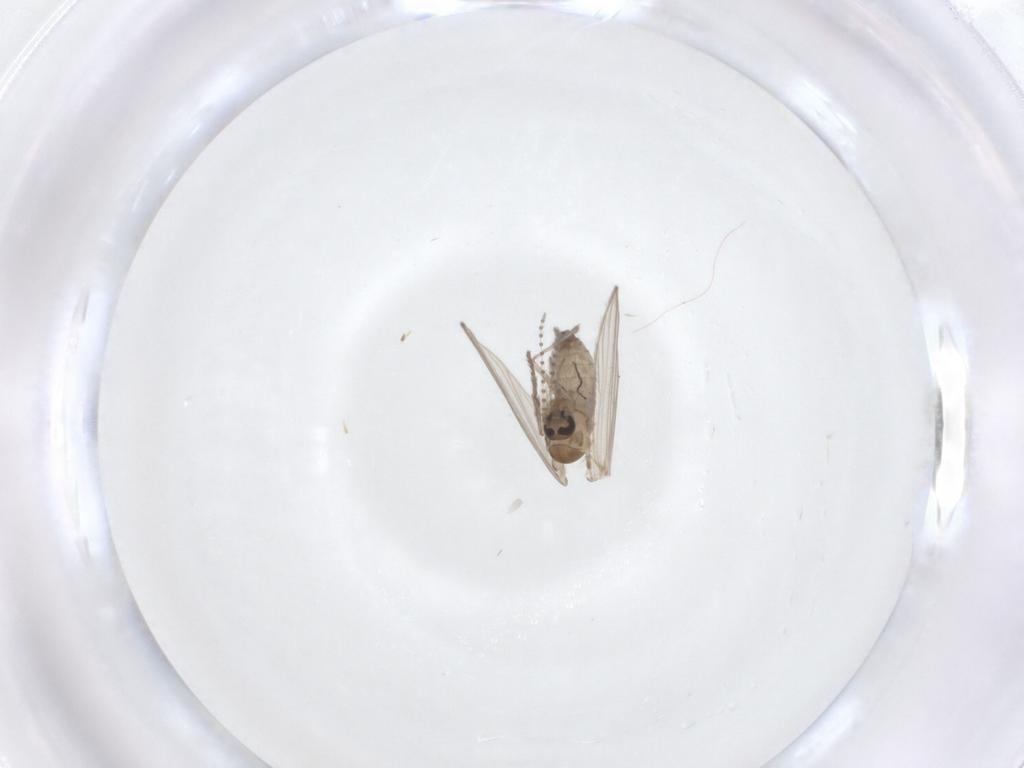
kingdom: Animalia
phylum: Arthropoda
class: Insecta
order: Diptera
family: Psychodidae
